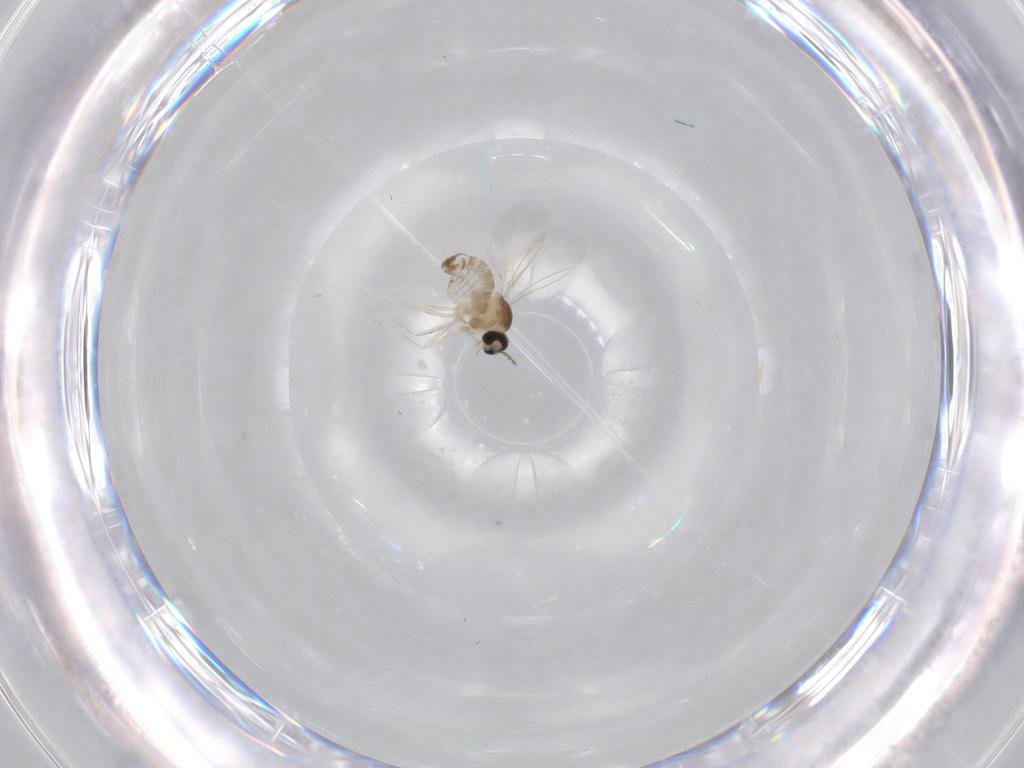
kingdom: Animalia
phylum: Arthropoda
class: Insecta
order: Diptera
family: Cecidomyiidae
